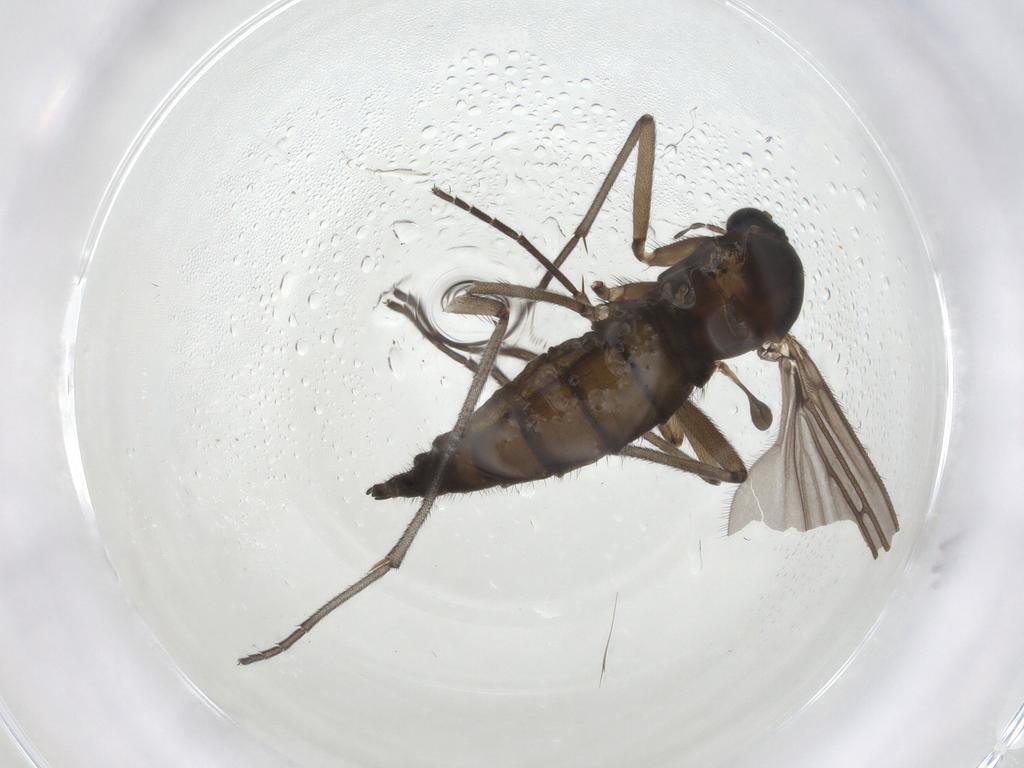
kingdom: Animalia
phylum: Arthropoda
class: Insecta
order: Diptera
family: Sciaridae
